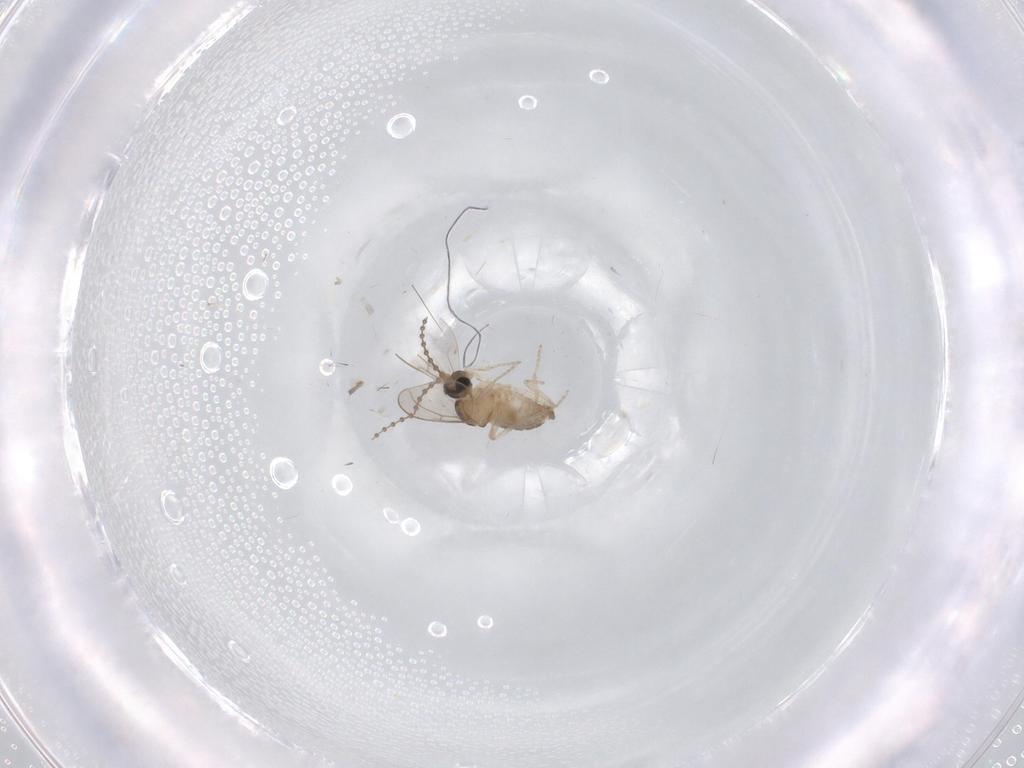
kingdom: Animalia
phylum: Arthropoda
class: Insecta
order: Diptera
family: Cecidomyiidae
